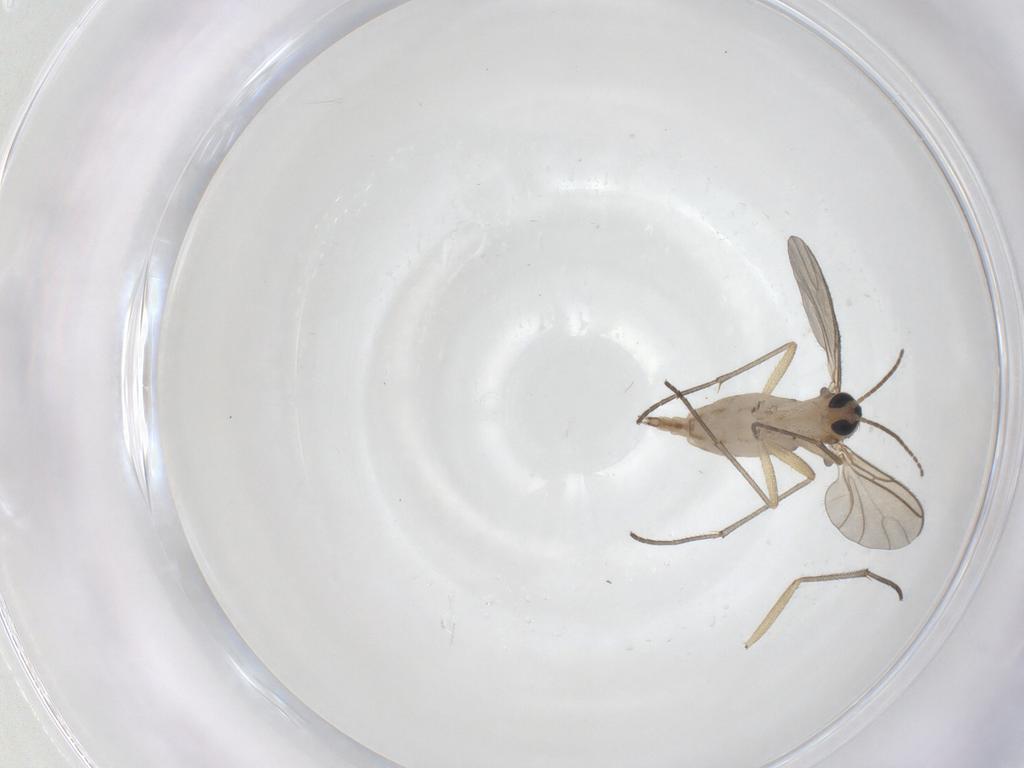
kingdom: Animalia
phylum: Arthropoda
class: Insecta
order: Diptera
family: Sciaridae
